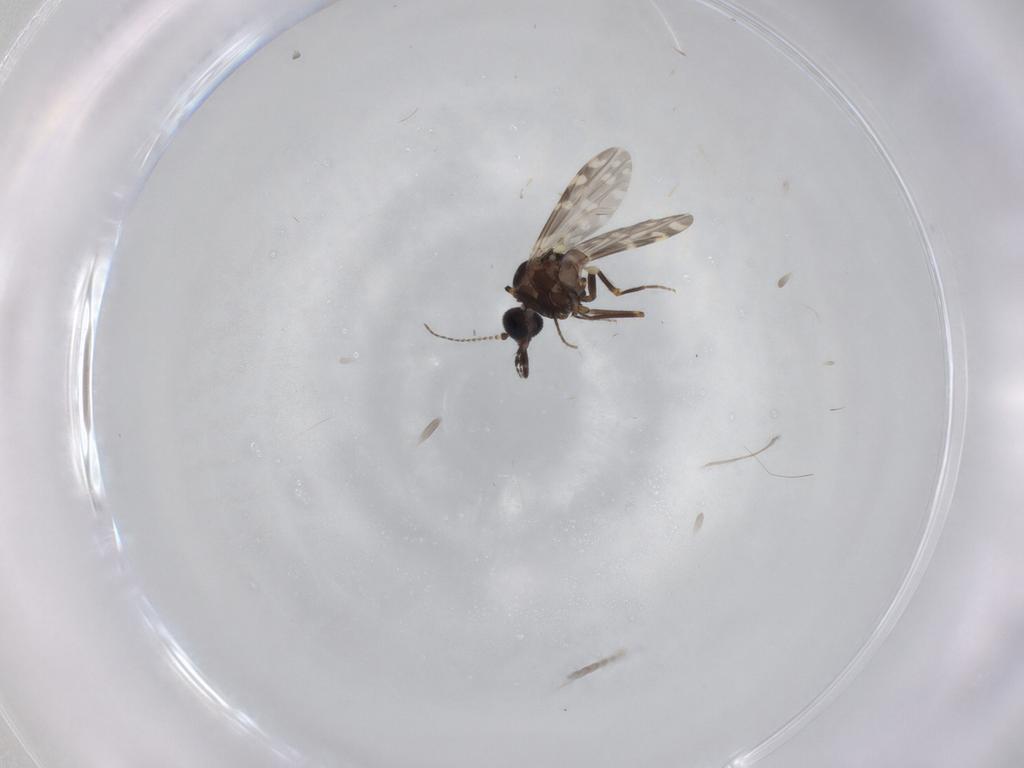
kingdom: Animalia
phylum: Arthropoda
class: Insecta
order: Diptera
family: Ceratopogonidae
